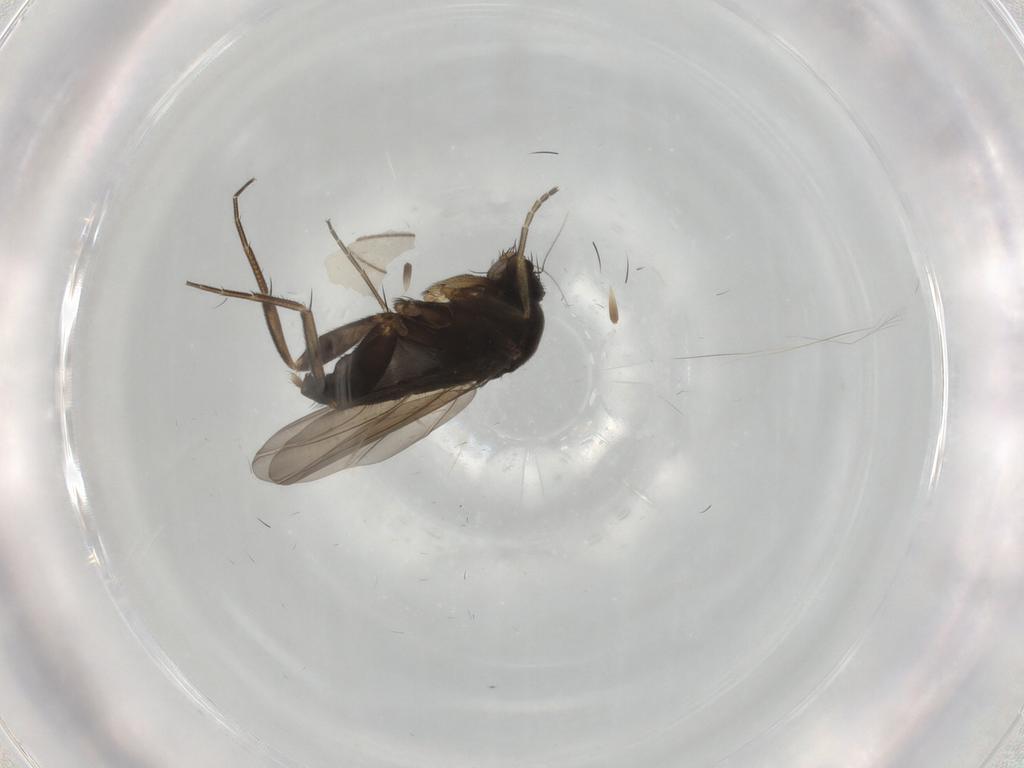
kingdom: Animalia
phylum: Arthropoda
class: Insecta
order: Diptera
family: Phoridae
